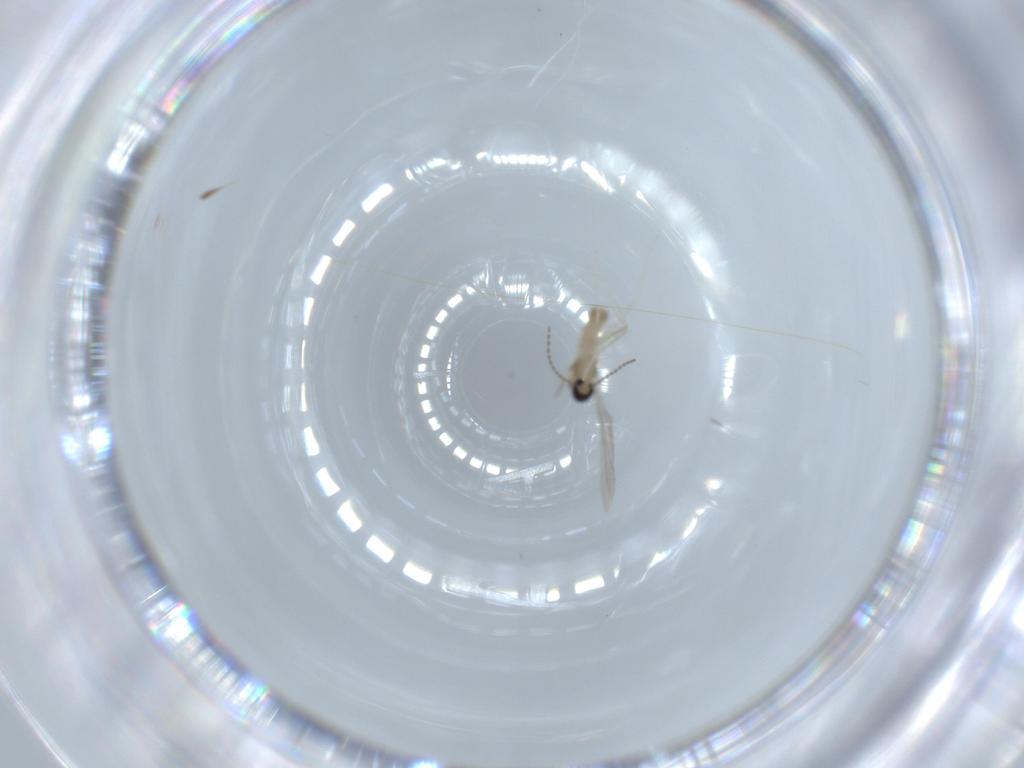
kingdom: Animalia
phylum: Arthropoda
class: Insecta
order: Diptera
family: Cecidomyiidae
